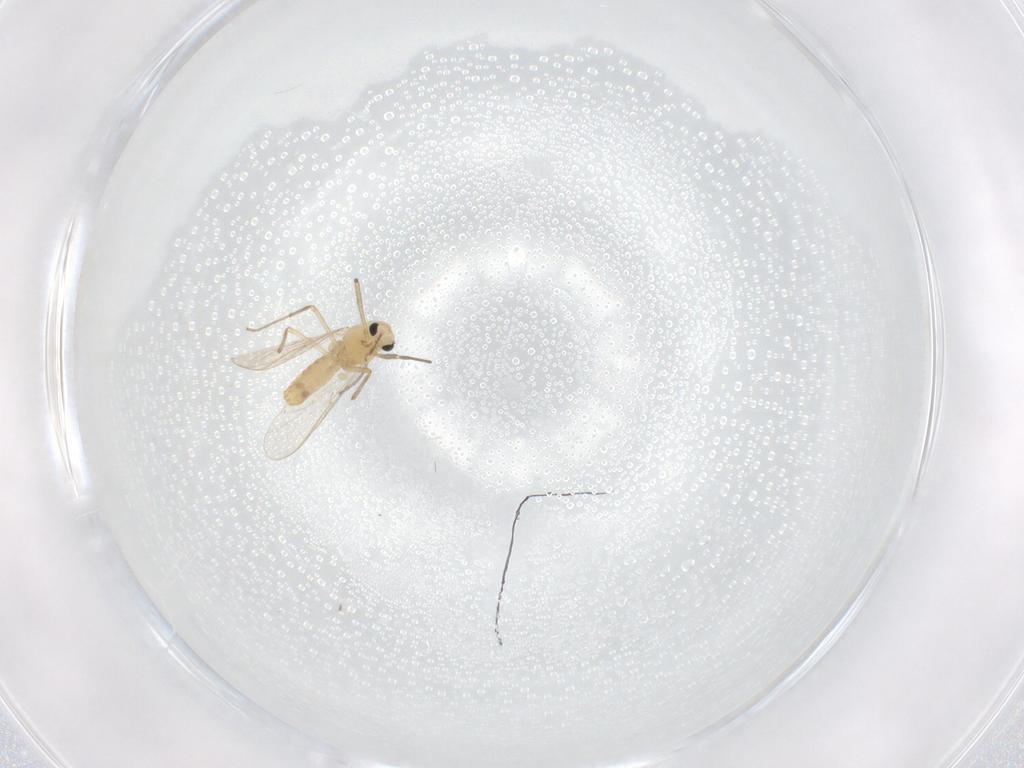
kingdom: Animalia
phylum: Arthropoda
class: Insecta
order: Diptera
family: Chironomidae
